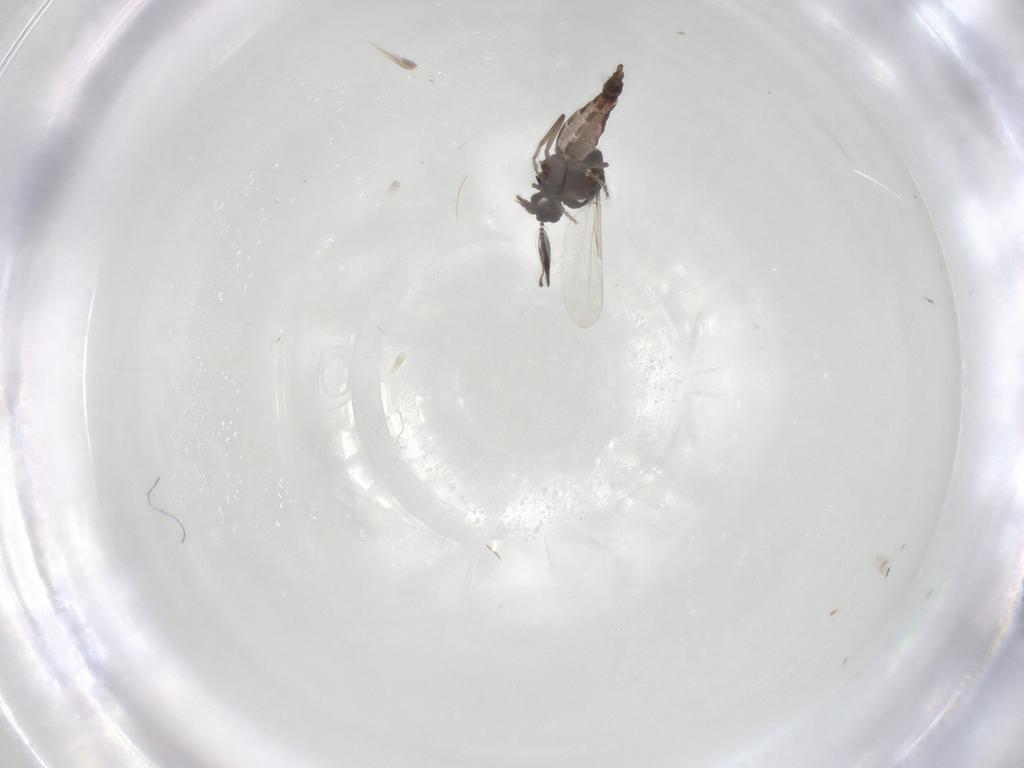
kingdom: Animalia
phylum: Arthropoda
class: Insecta
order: Diptera
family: Ceratopogonidae
